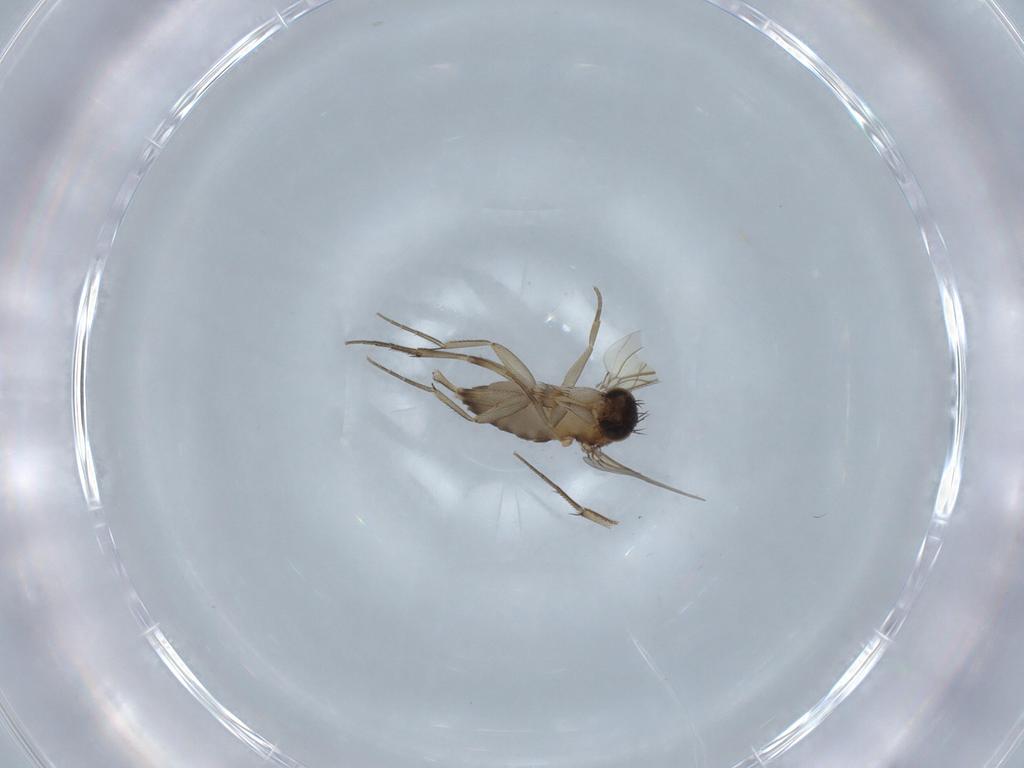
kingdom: Animalia
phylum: Arthropoda
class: Insecta
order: Diptera
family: Phoridae
